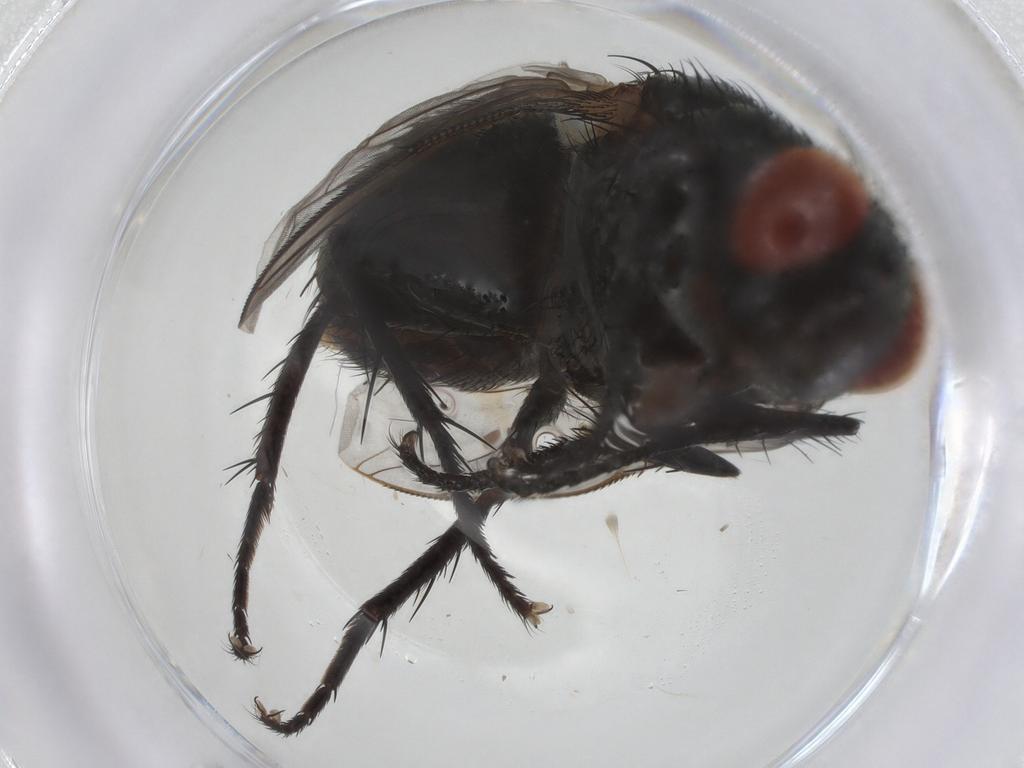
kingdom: Animalia
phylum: Arthropoda
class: Insecta
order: Diptera
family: Sarcophagidae
